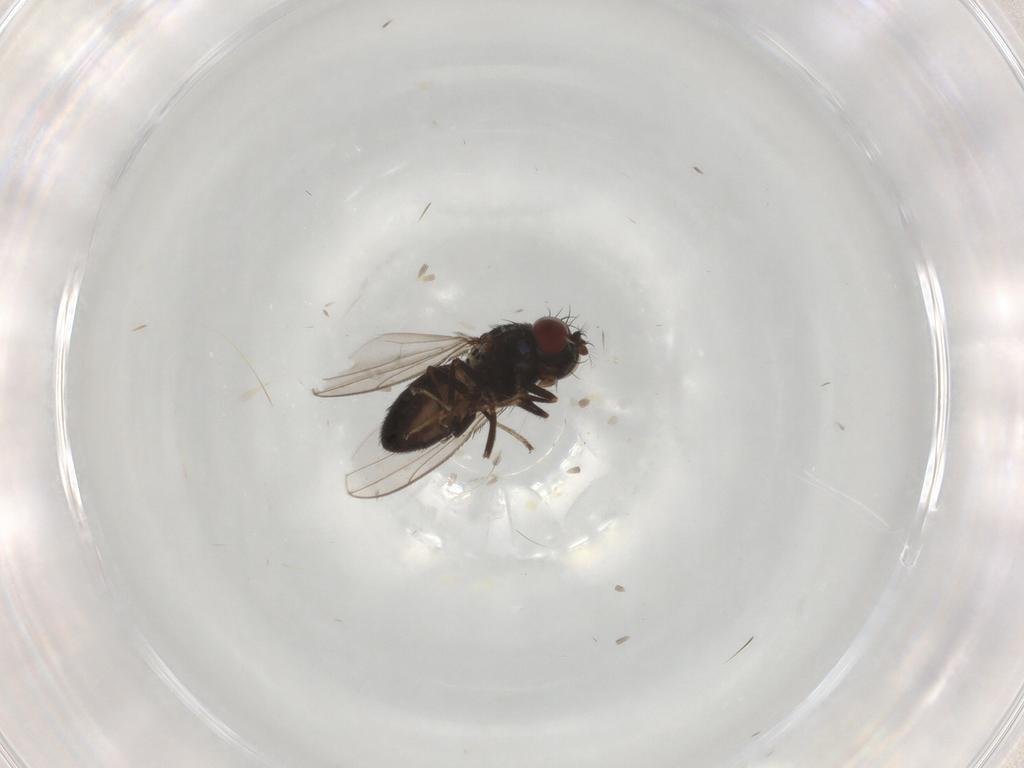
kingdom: Animalia
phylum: Arthropoda
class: Insecta
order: Diptera
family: Glossinidae
